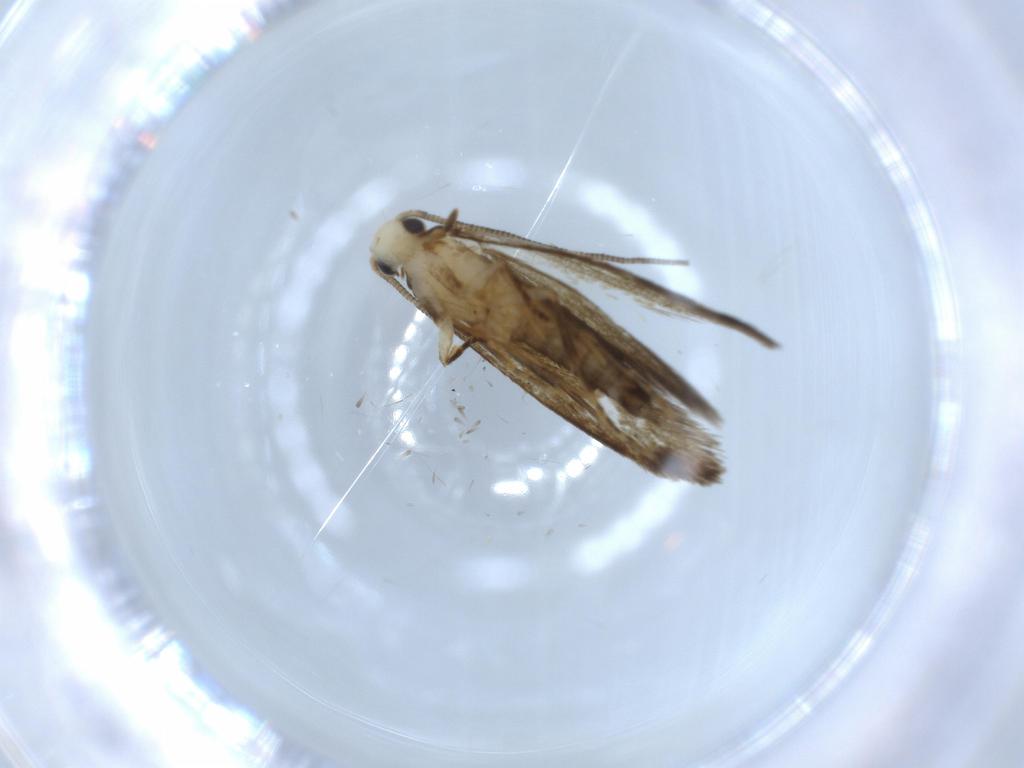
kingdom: Animalia
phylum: Arthropoda
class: Insecta
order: Lepidoptera
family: Tineidae
